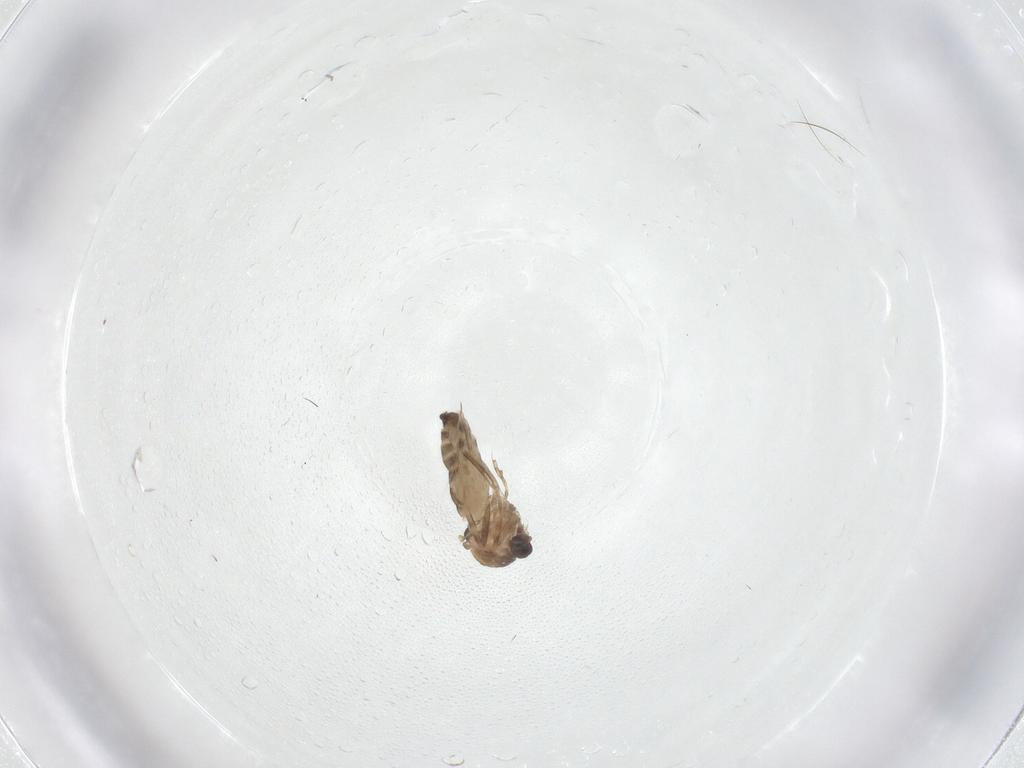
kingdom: Animalia
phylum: Arthropoda
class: Insecta
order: Diptera
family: Ceratopogonidae
